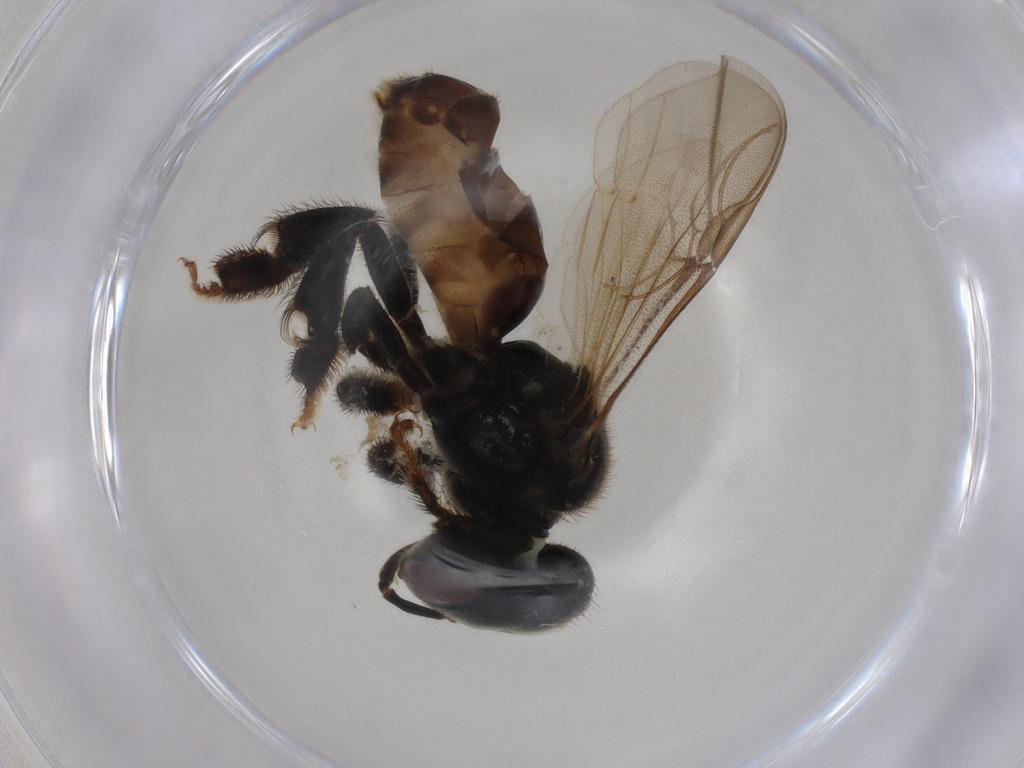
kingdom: Animalia
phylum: Arthropoda
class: Insecta
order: Hymenoptera
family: Apidae
